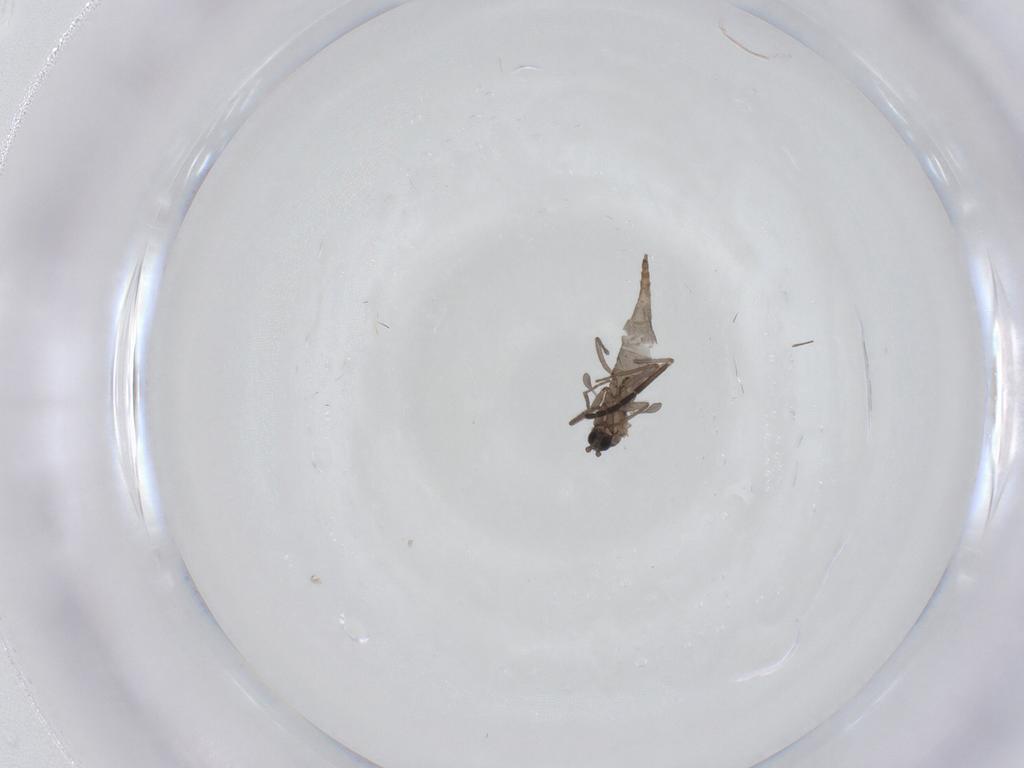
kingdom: Animalia
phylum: Arthropoda
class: Insecta
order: Diptera
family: Sciaridae
